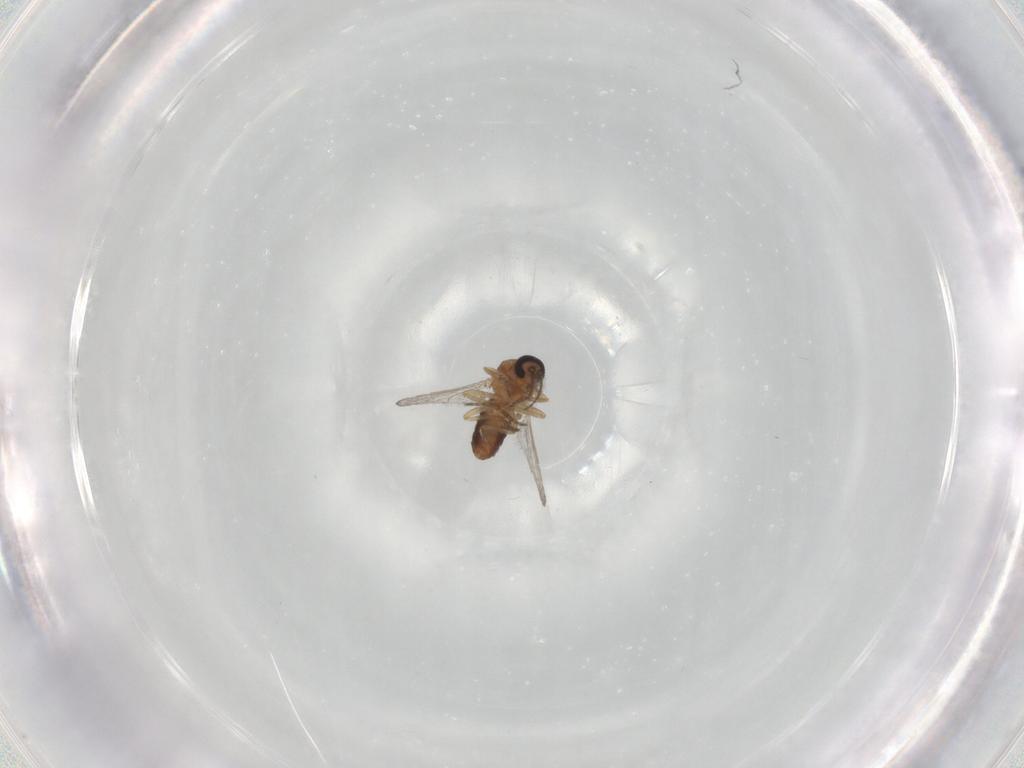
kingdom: Animalia
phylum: Arthropoda
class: Insecta
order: Diptera
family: Ceratopogonidae
